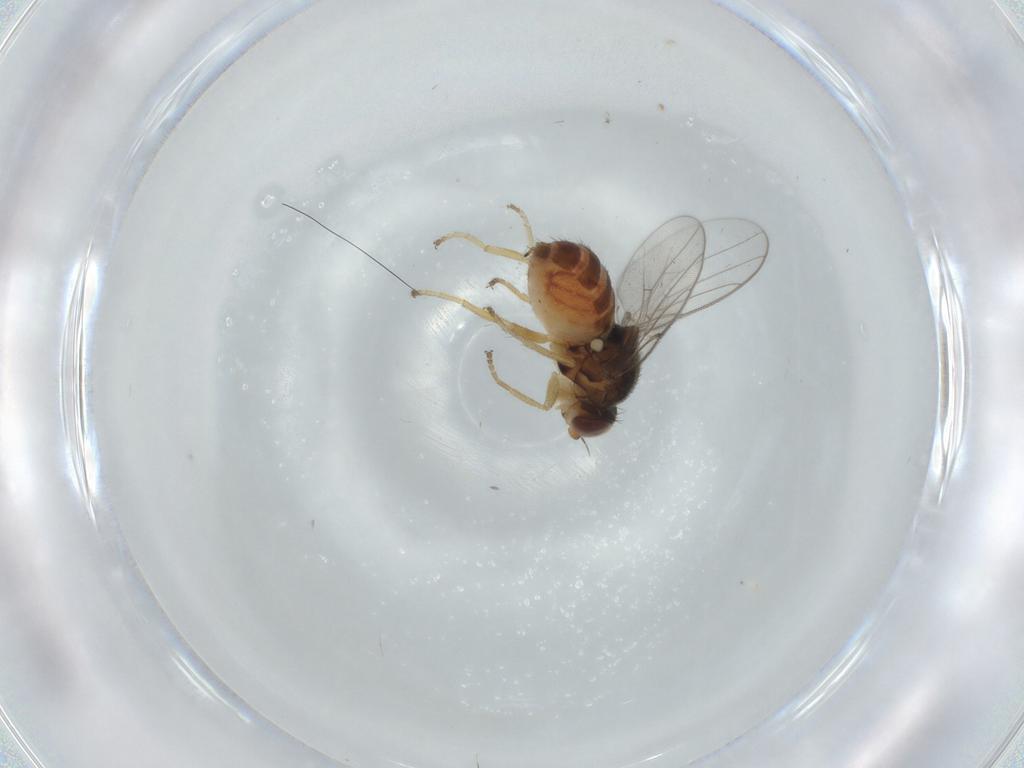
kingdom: Animalia
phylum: Arthropoda
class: Insecta
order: Diptera
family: Chloropidae
